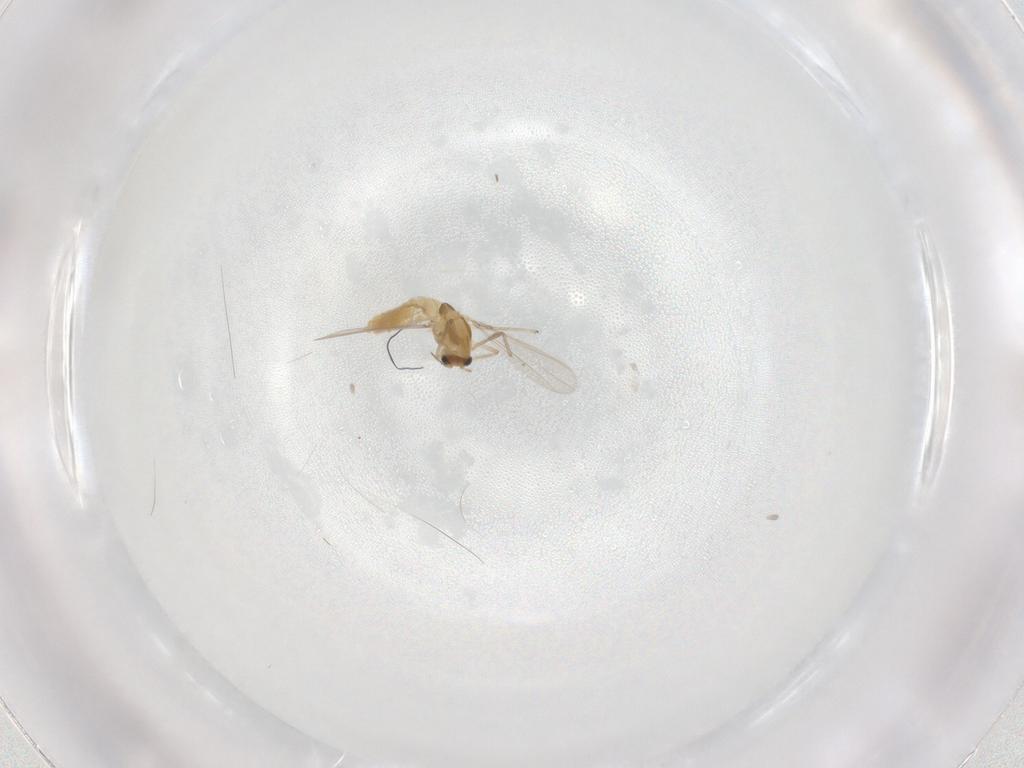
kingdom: Animalia
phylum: Arthropoda
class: Insecta
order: Diptera
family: Chironomidae
